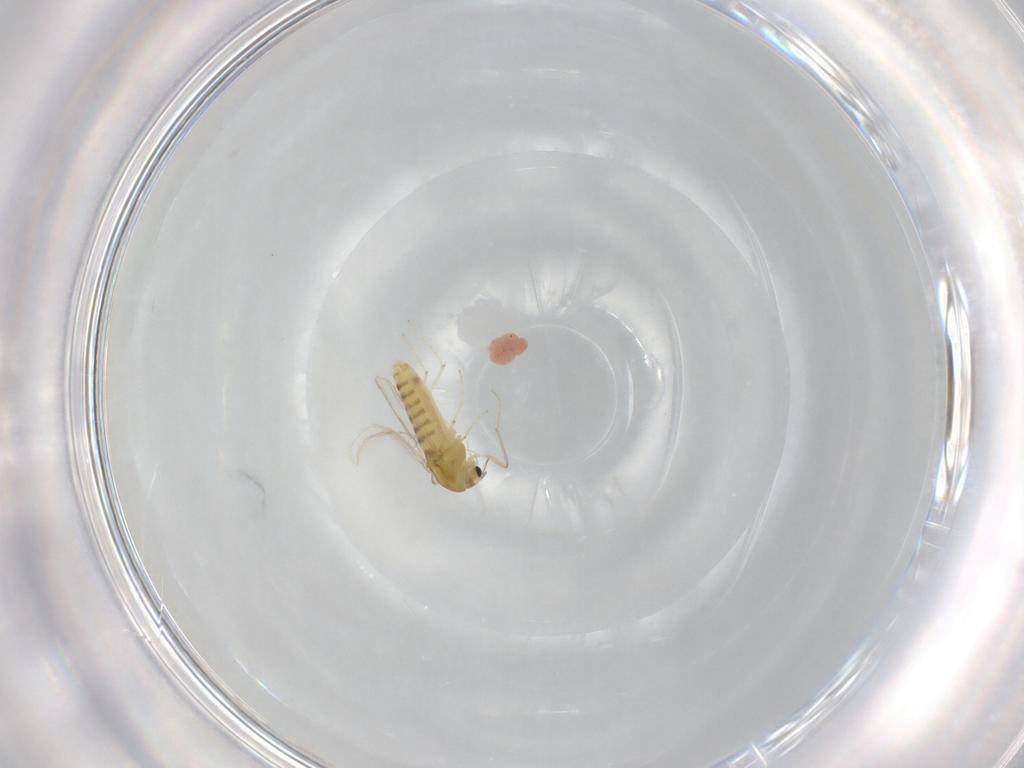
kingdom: Animalia
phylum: Arthropoda
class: Insecta
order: Diptera
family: Chironomidae
